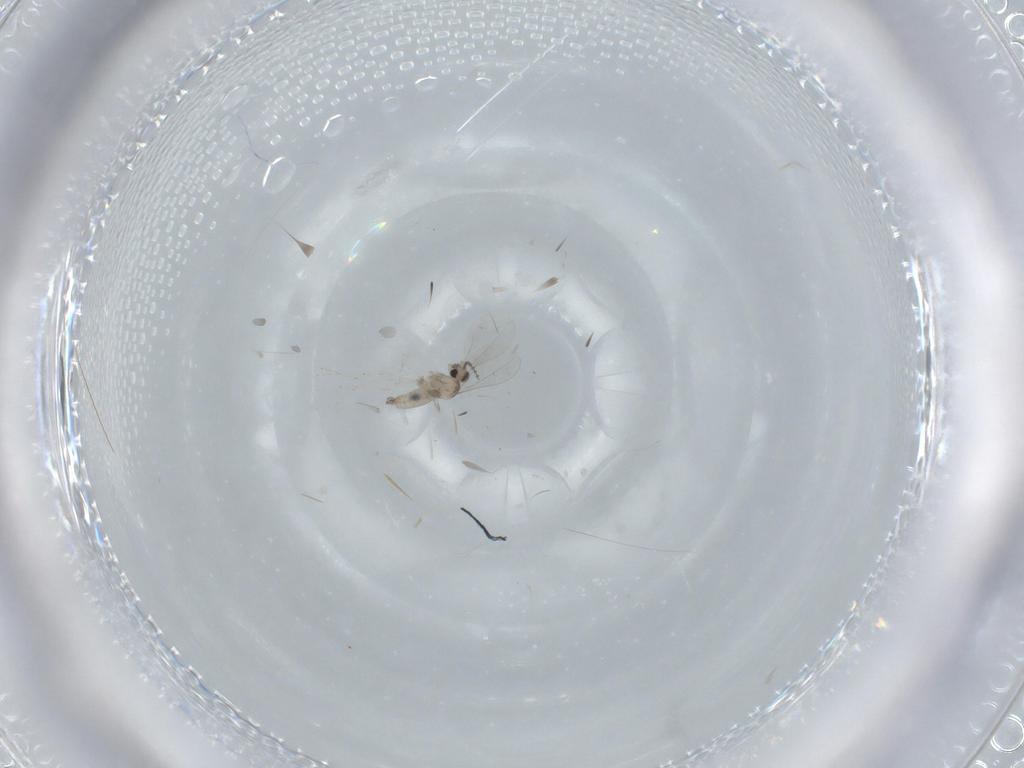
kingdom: Animalia
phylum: Arthropoda
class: Insecta
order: Diptera
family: Cecidomyiidae
